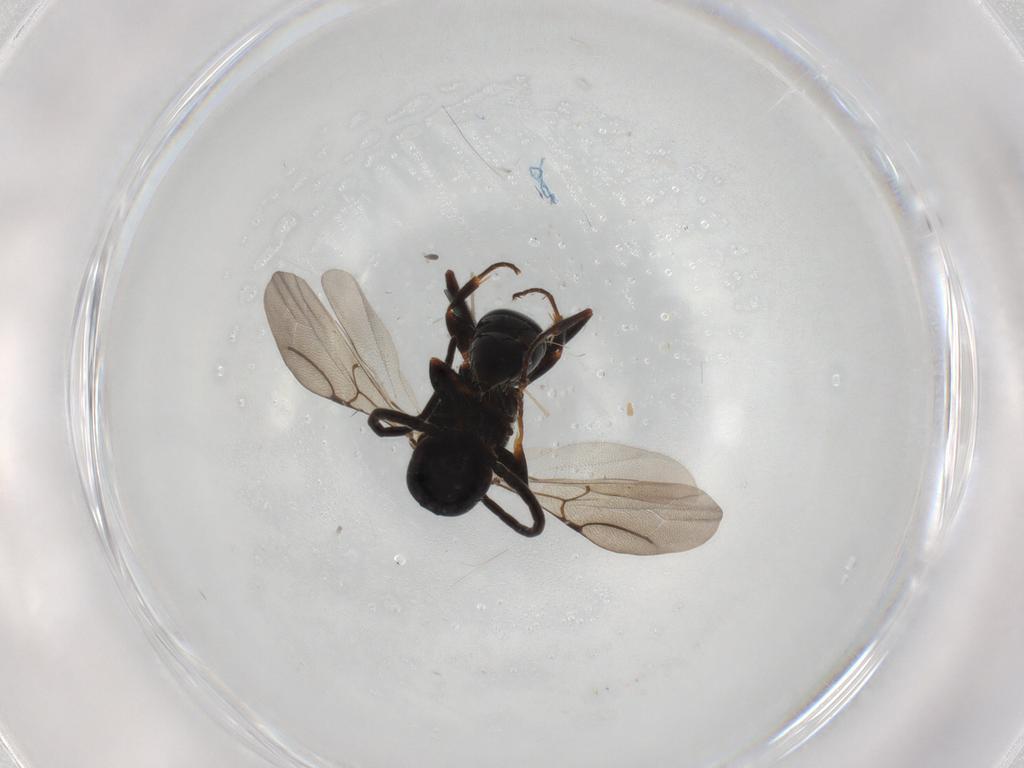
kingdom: Animalia
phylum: Arthropoda
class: Insecta
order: Hymenoptera
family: Bethylidae
